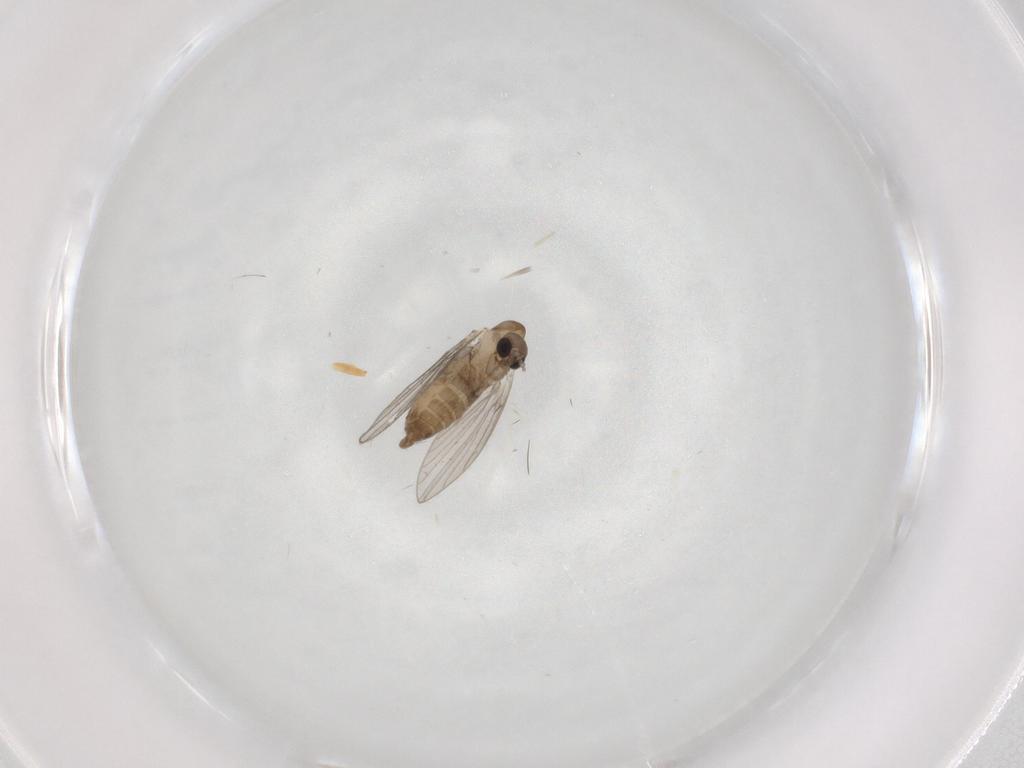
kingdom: Animalia
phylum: Arthropoda
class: Insecta
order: Diptera
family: Psychodidae
